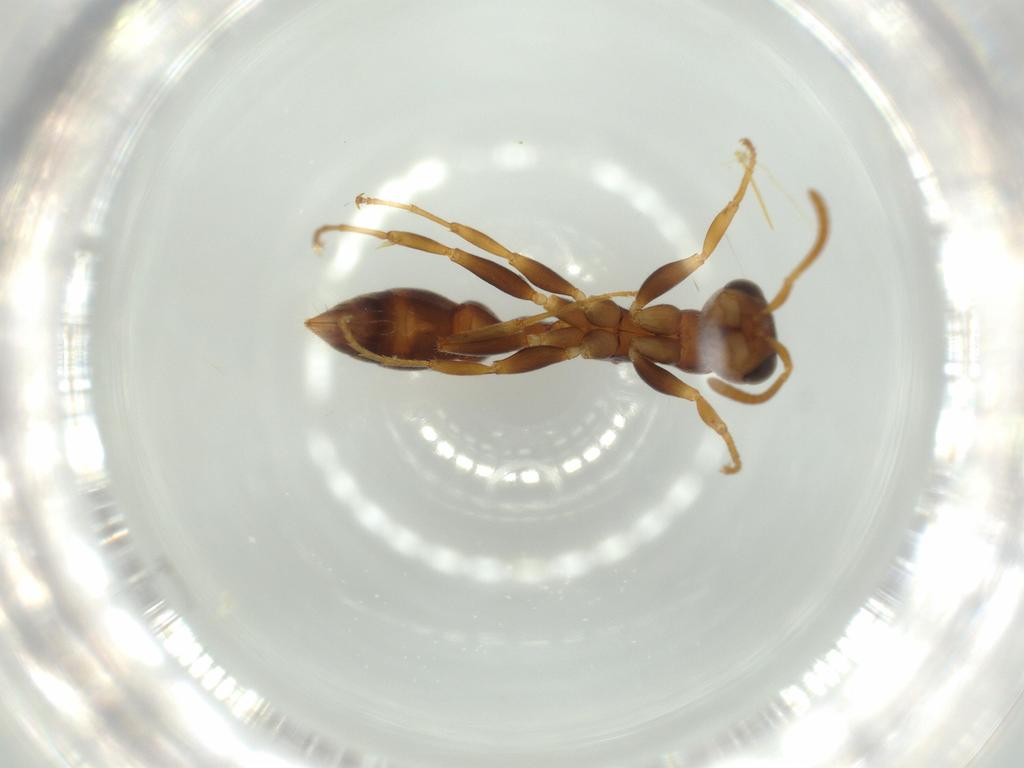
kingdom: Animalia
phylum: Arthropoda
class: Insecta
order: Hymenoptera
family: Formicidae
